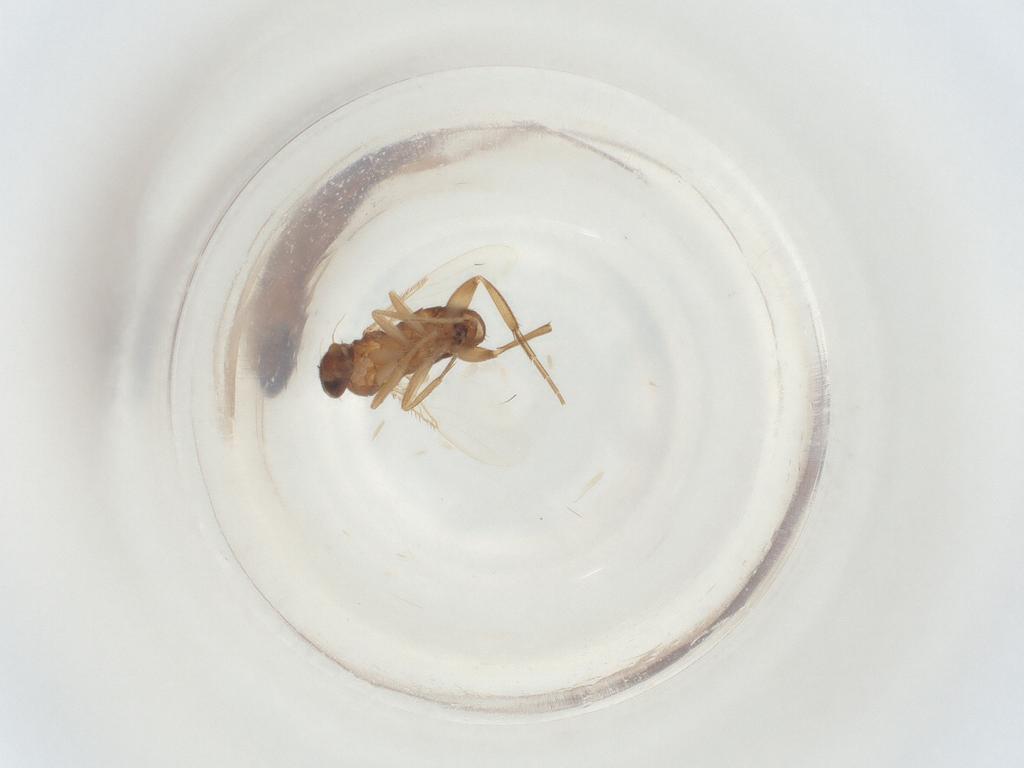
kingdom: Animalia
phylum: Arthropoda
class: Insecta
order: Diptera
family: Phoridae
